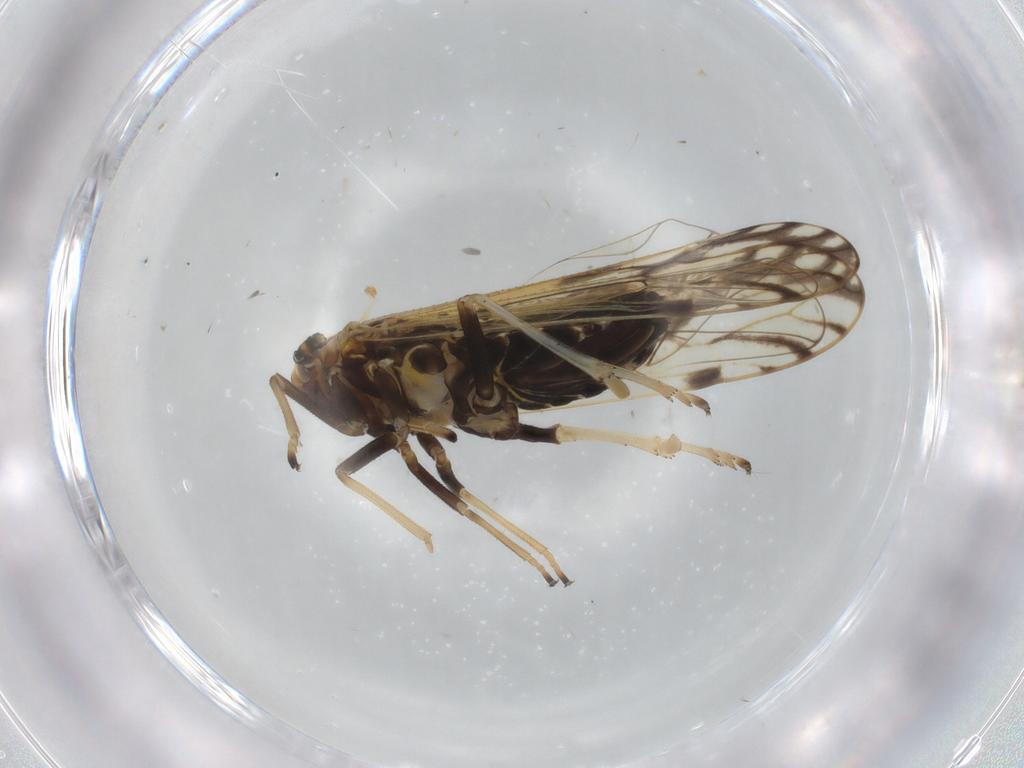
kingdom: Animalia
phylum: Arthropoda
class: Insecta
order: Hemiptera
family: Delphacidae
